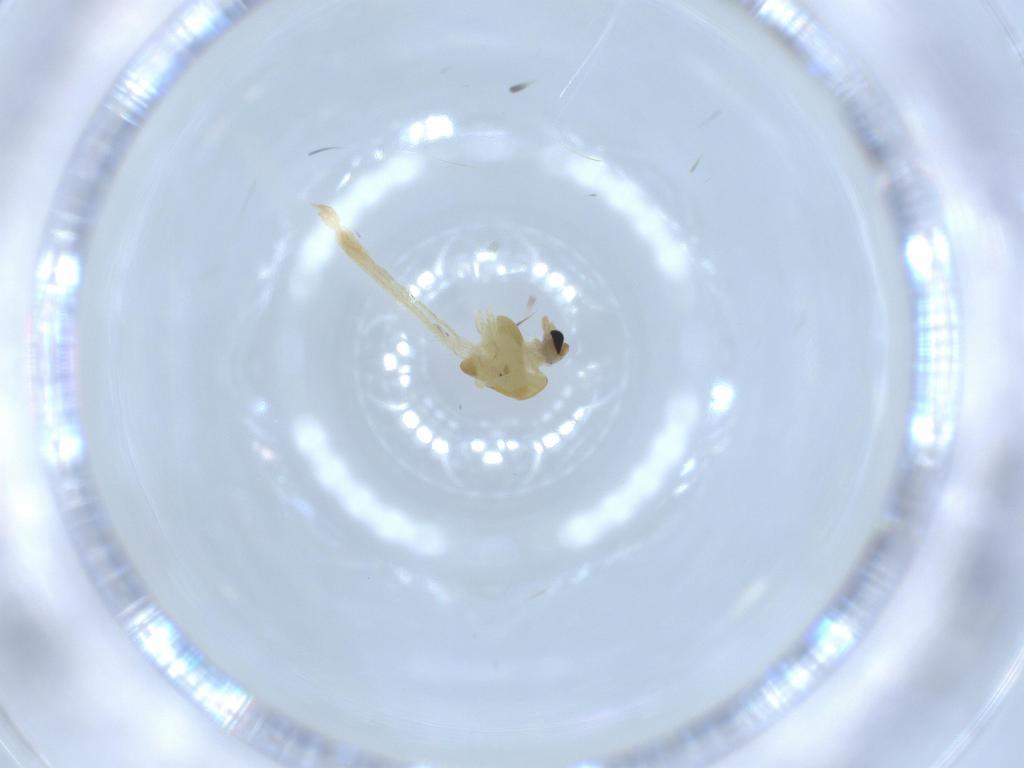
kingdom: Animalia
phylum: Arthropoda
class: Insecta
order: Diptera
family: Chironomidae
